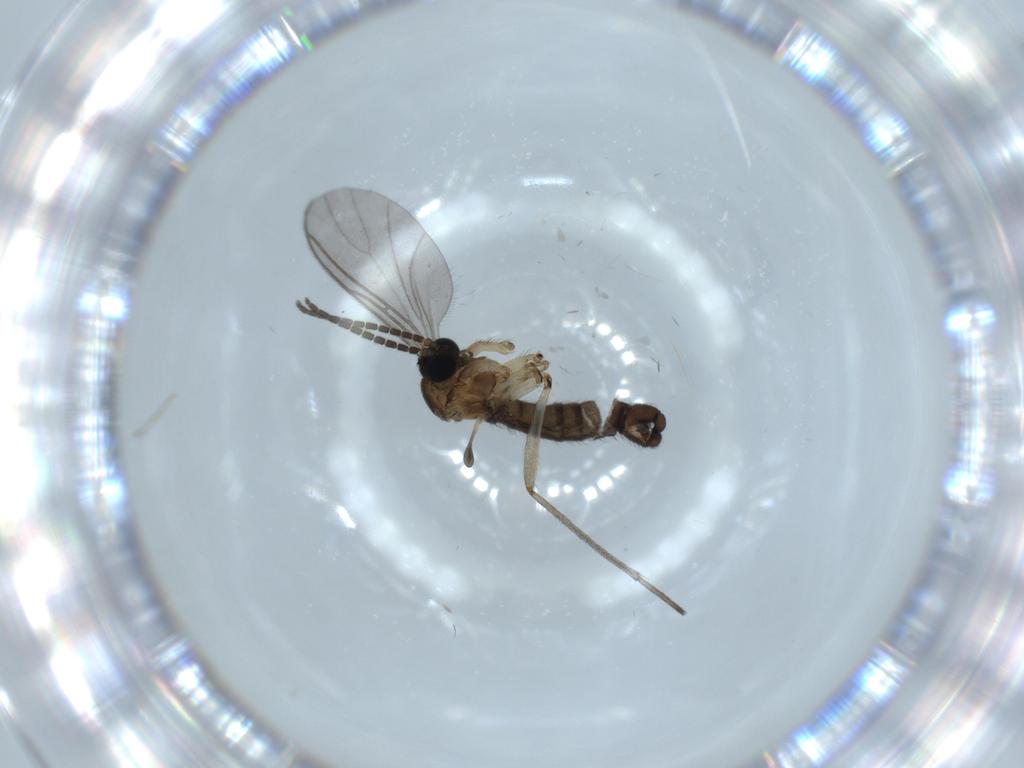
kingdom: Animalia
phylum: Arthropoda
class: Insecta
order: Diptera
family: Sciaridae
